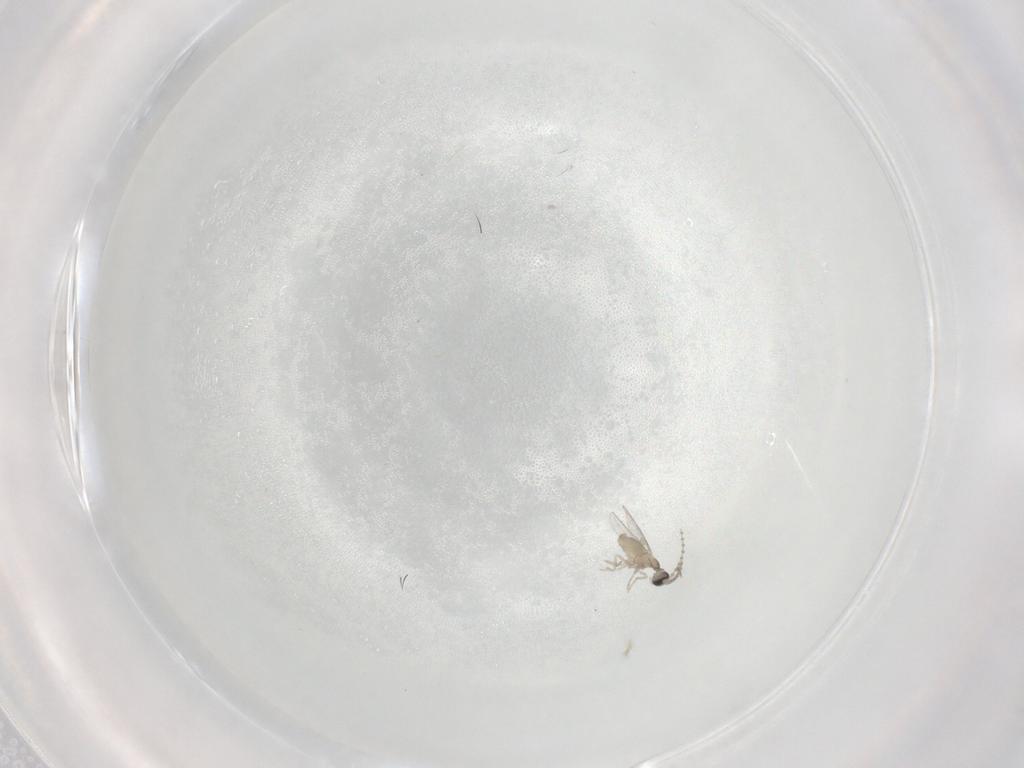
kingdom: Animalia
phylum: Arthropoda
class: Insecta
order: Diptera
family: Cecidomyiidae
